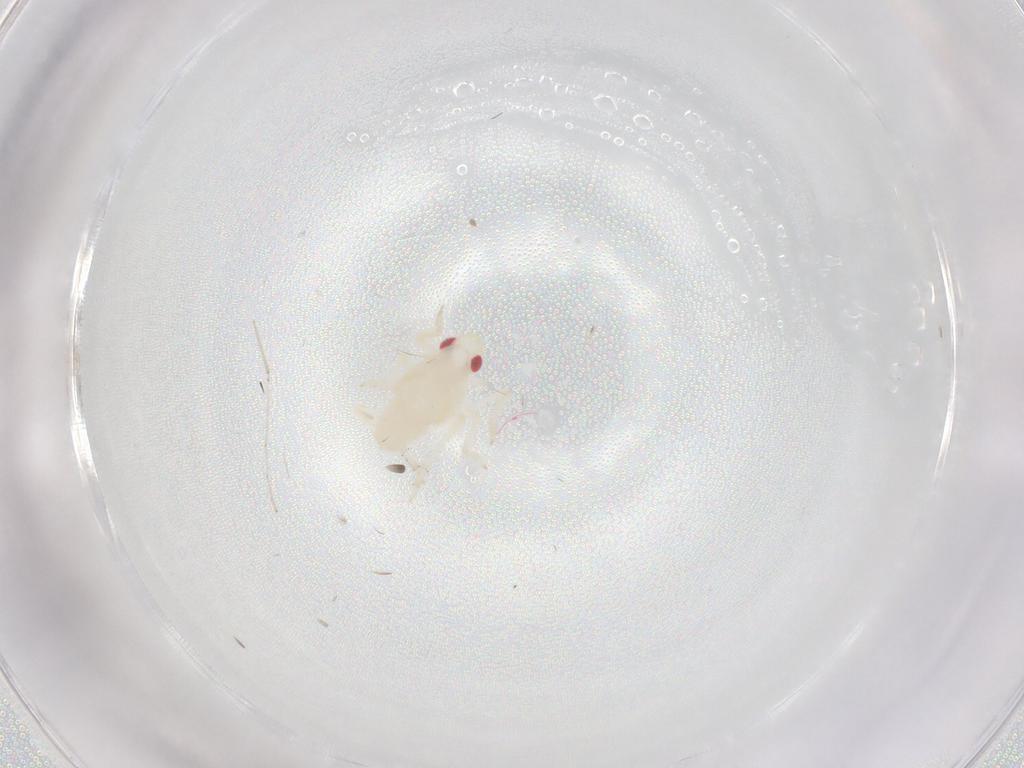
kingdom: Animalia
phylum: Arthropoda
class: Insecta
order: Hemiptera
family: Tropiduchidae
